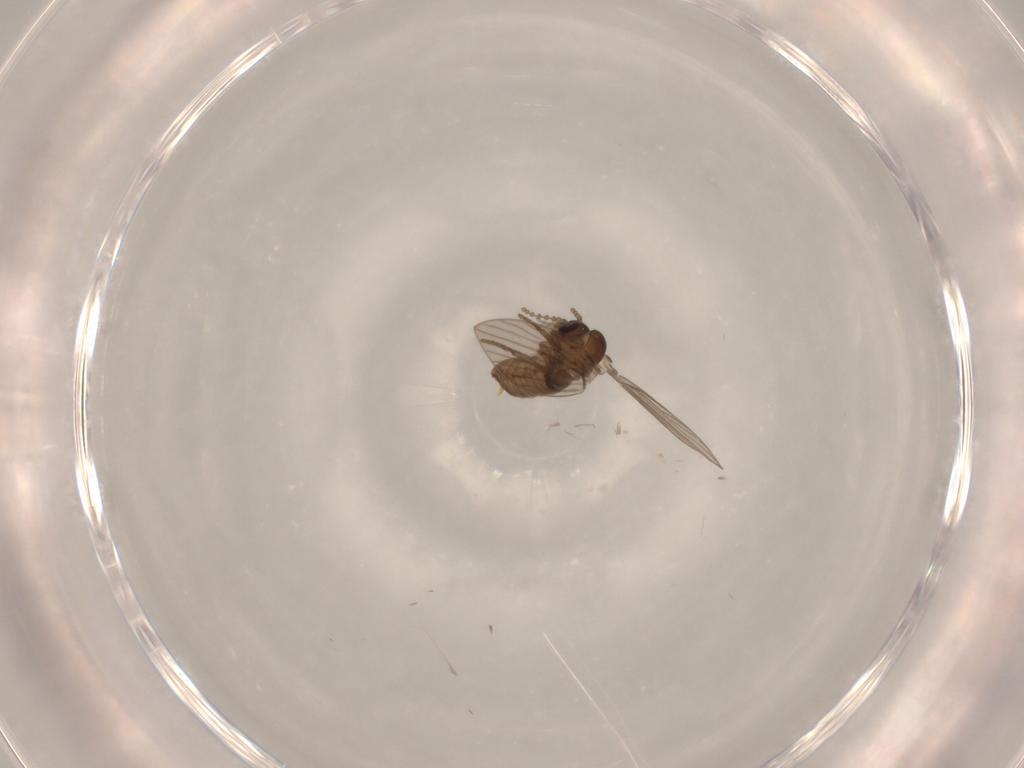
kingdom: Animalia
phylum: Arthropoda
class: Insecta
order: Diptera
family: Psychodidae
